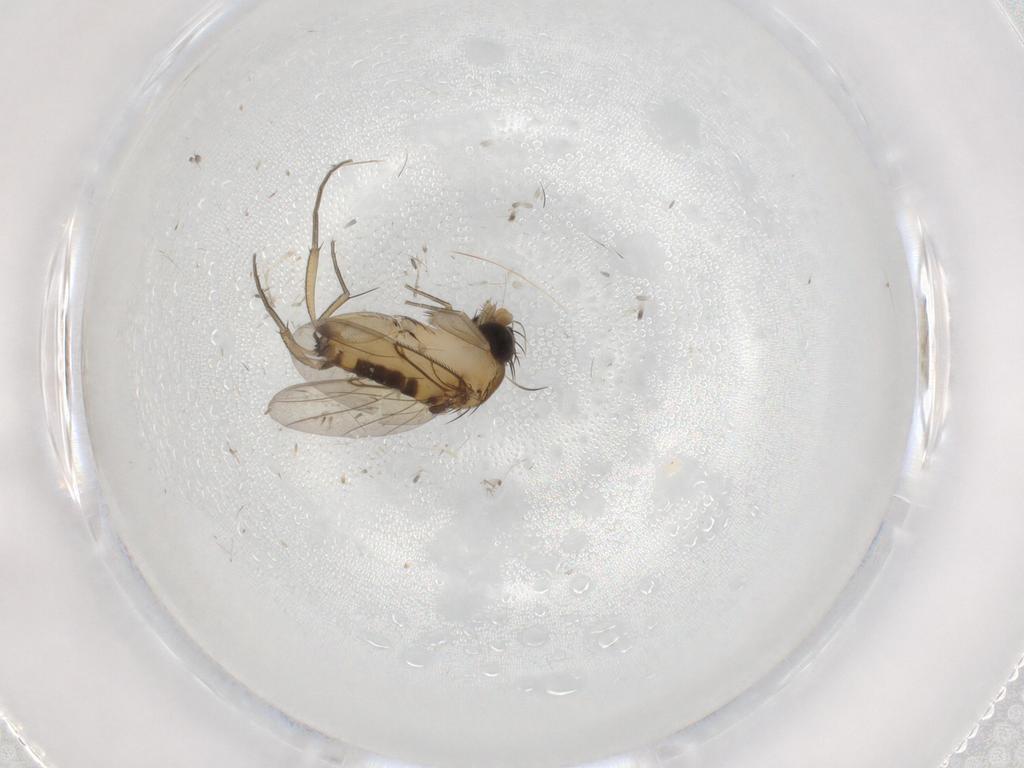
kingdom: Animalia
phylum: Arthropoda
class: Insecta
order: Diptera
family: Phoridae
